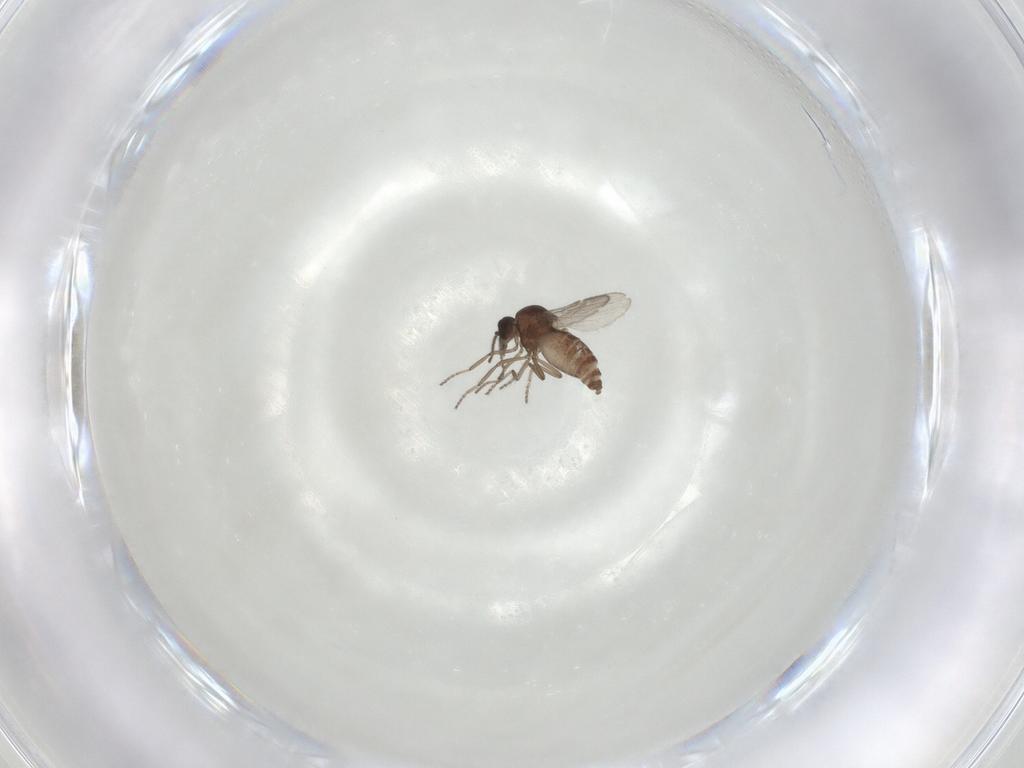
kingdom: Animalia
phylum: Arthropoda
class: Insecta
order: Diptera
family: Ceratopogonidae
